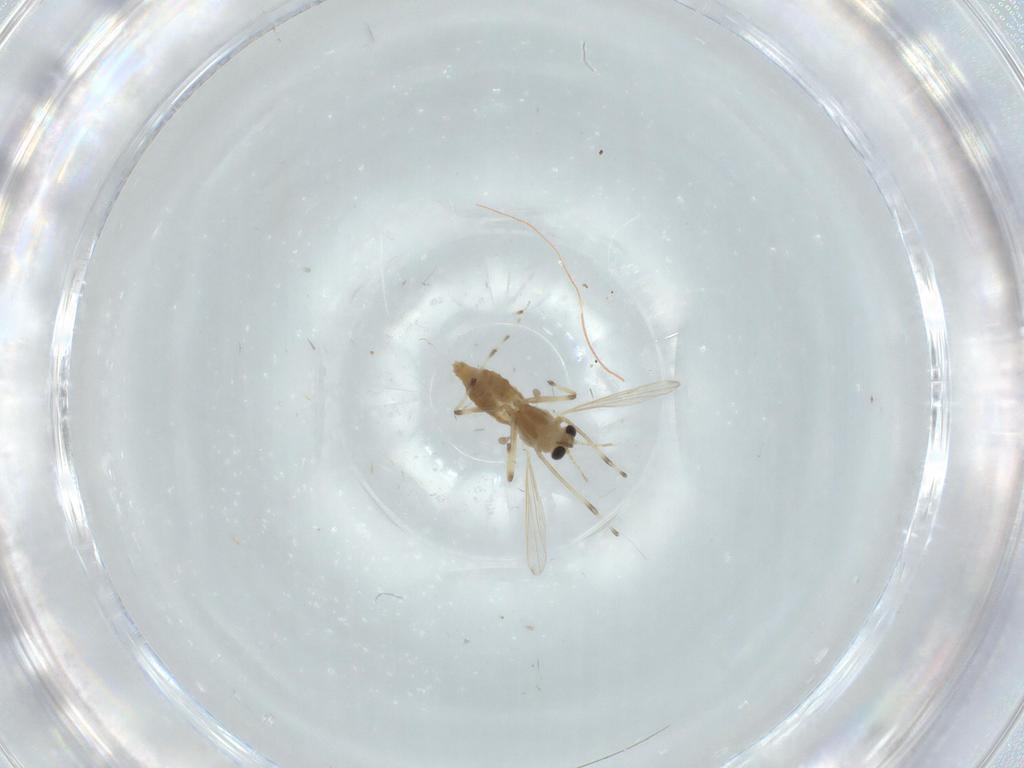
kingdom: Animalia
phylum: Arthropoda
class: Insecta
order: Diptera
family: Chironomidae
